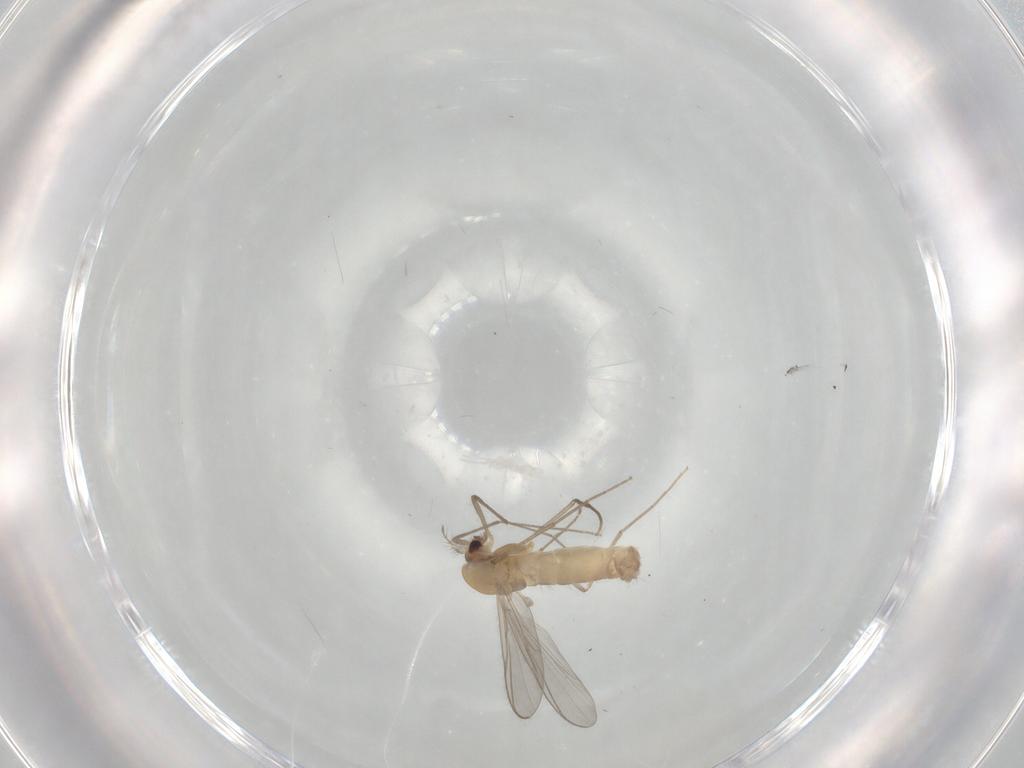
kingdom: Animalia
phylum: Arthropoda
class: Insecta
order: Diptera
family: Chironomidae
